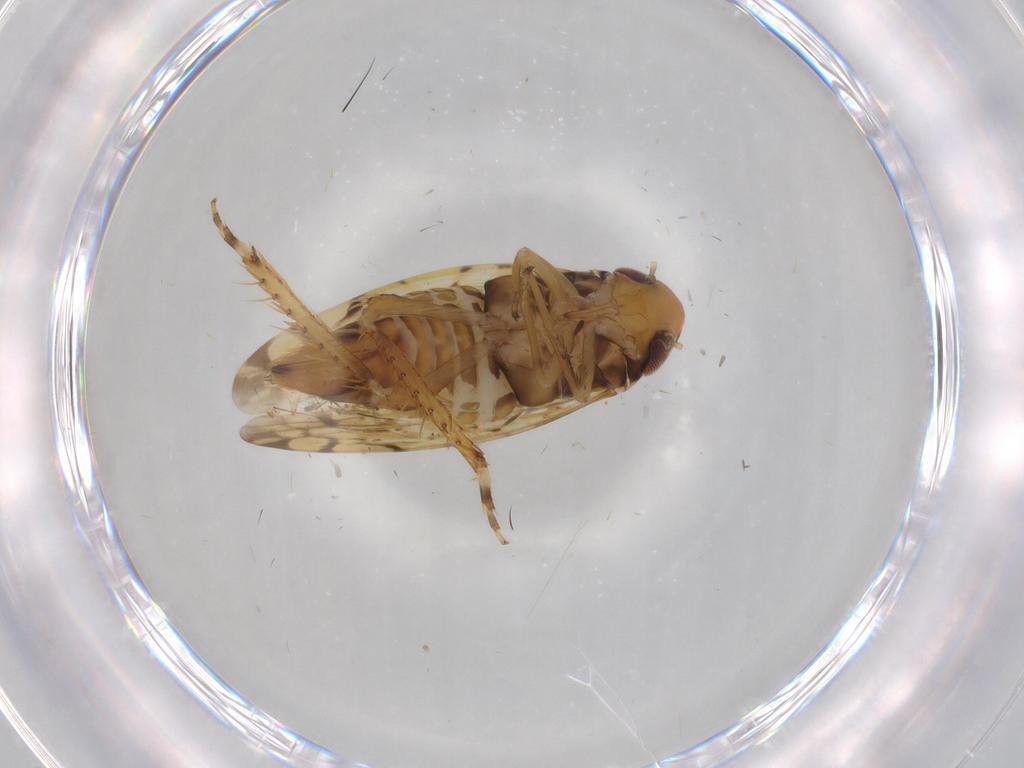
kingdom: Animalia
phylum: Arthropoda
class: Insecta
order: Hemiptera
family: Cicadellidae
